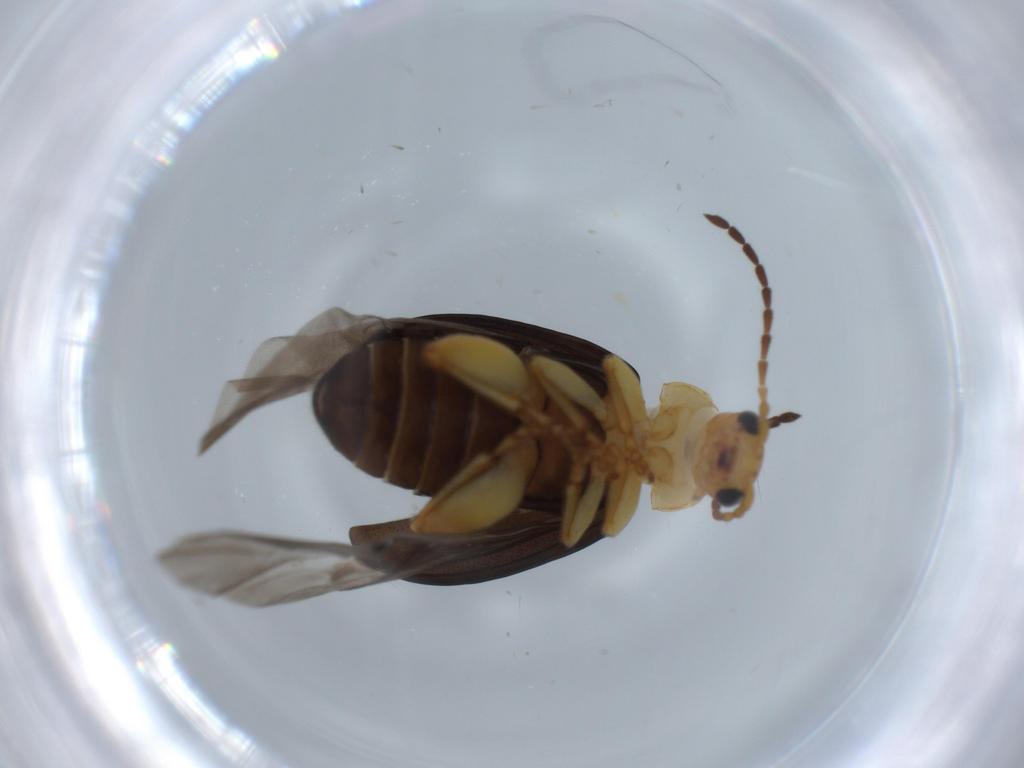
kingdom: Animalia
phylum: Arthropoda
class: Insecta
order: Coleoptera
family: Chrysomelidae
